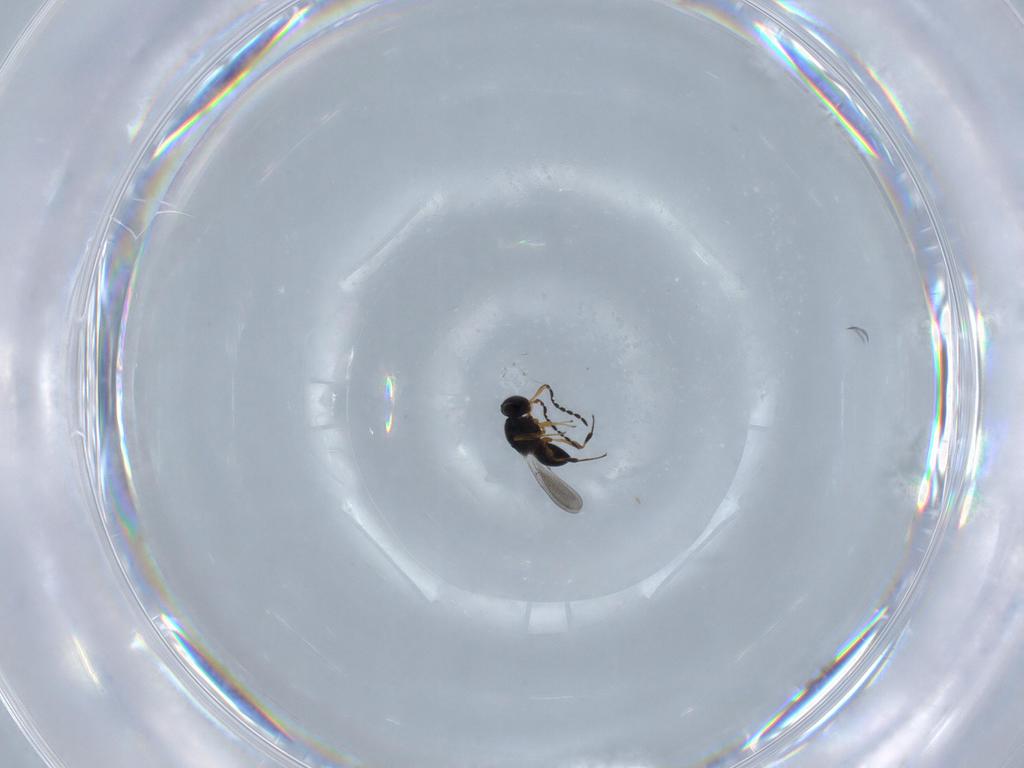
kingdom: Animalia
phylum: Arthropoda
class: Insecta
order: Hymenoptera
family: Platygastridae
